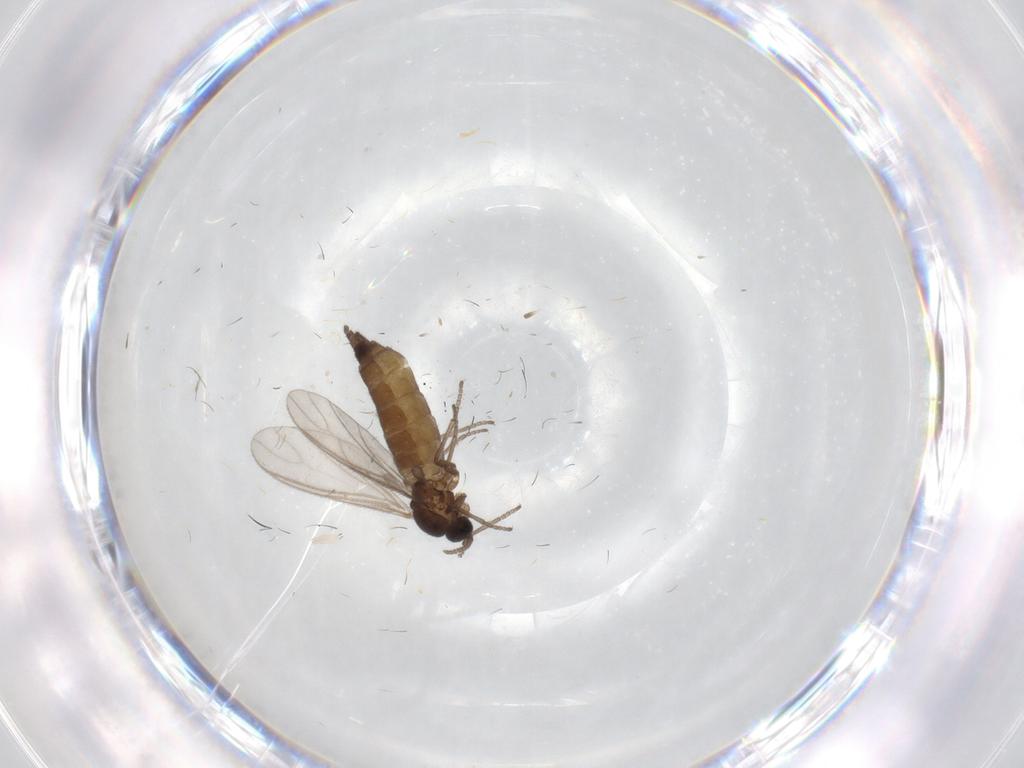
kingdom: Animalia
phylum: Arthropoda
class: Insecta
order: Diptera
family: Sciaridae
